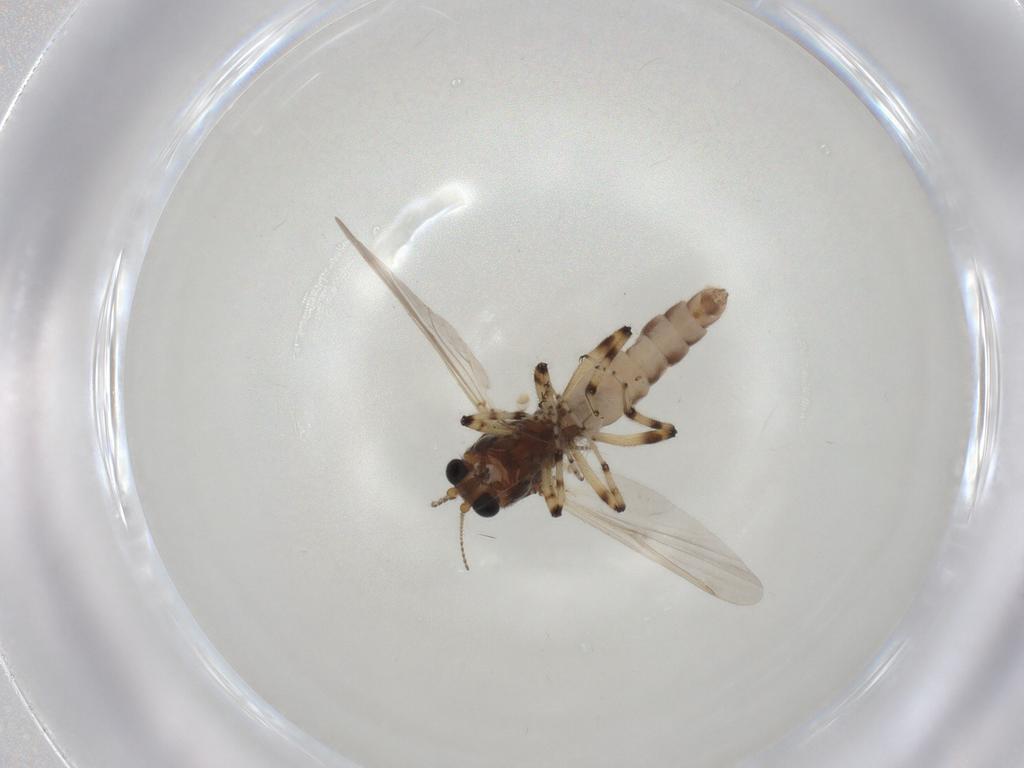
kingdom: Animalia
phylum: Arthropoda
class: Insecta
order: Diptera
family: Ceratopogonidae
